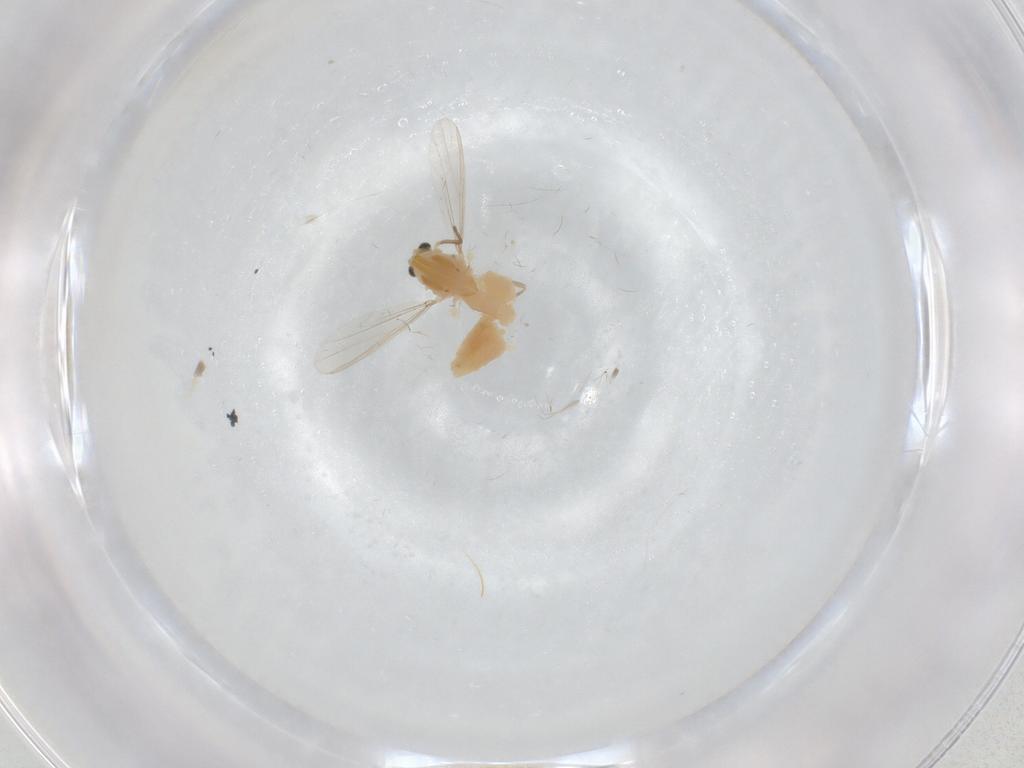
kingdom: Animalia
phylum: Arthropoda
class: Insecta
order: Diptera
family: Chironomidae
